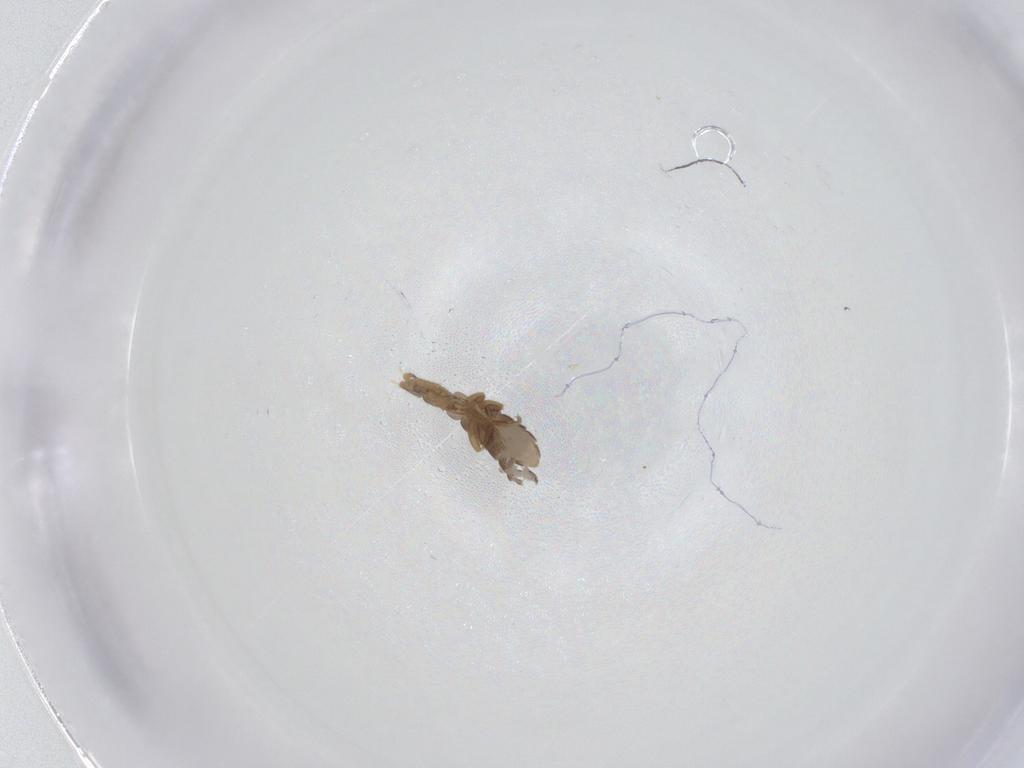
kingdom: Animalia
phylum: Arthropoda
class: Insecta
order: Diptera
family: Phoridae
